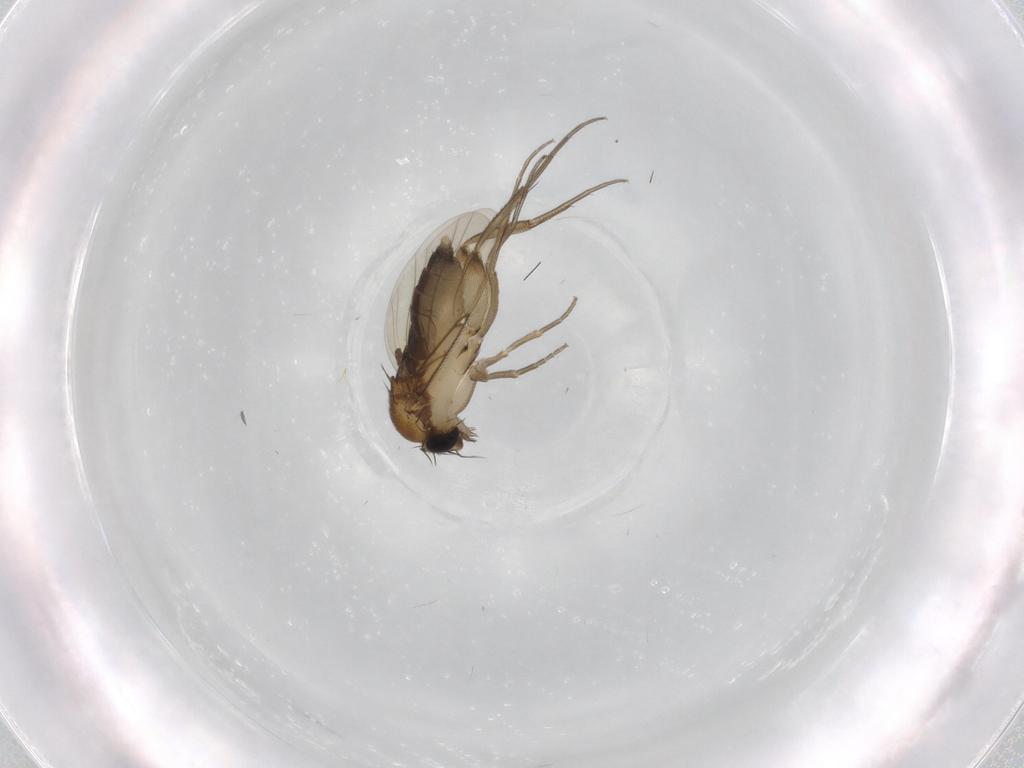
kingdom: Animalia
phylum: Arthropoda
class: Insecta
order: Diptera
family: Phoridae
